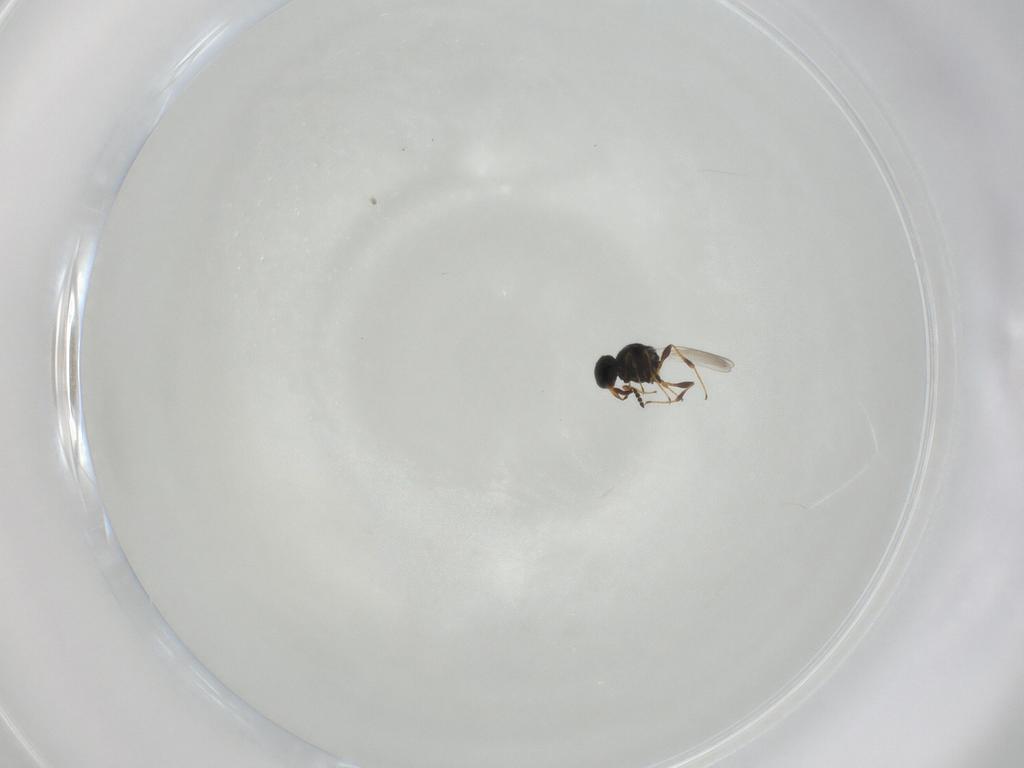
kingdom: Animalia
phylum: Arthropoda
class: Insecta
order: Hymenoptera
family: Platygastridae
